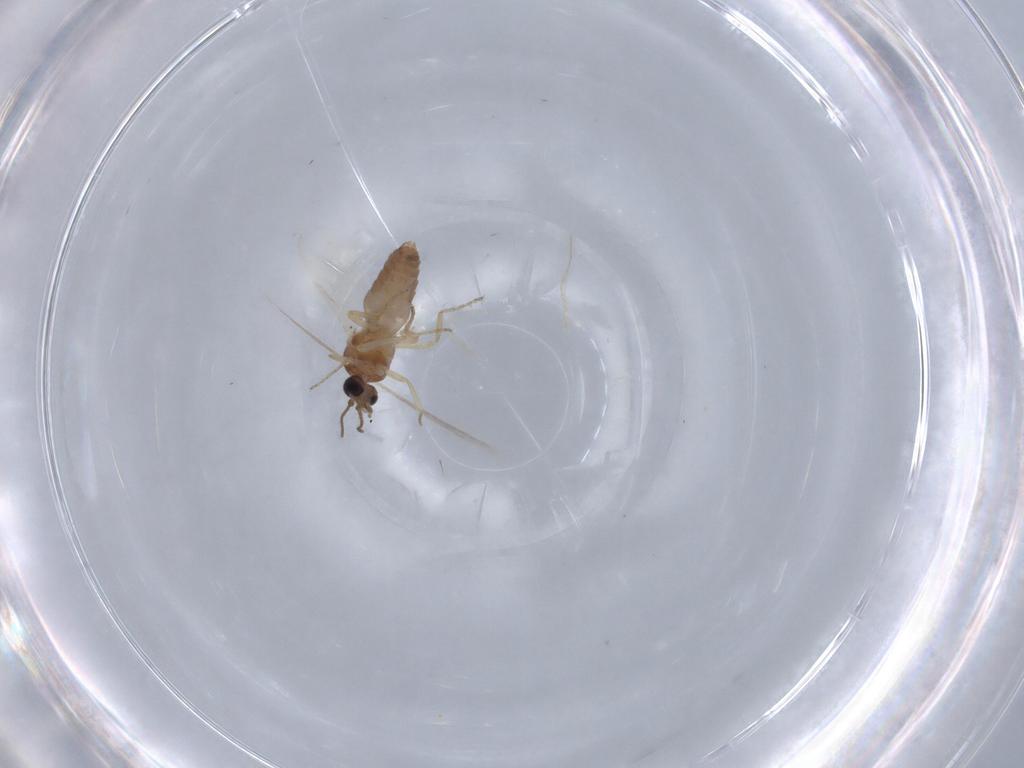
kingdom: Animalia
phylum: Arthropoda
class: Insecta
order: Diptera
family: Ceratopogonidae
